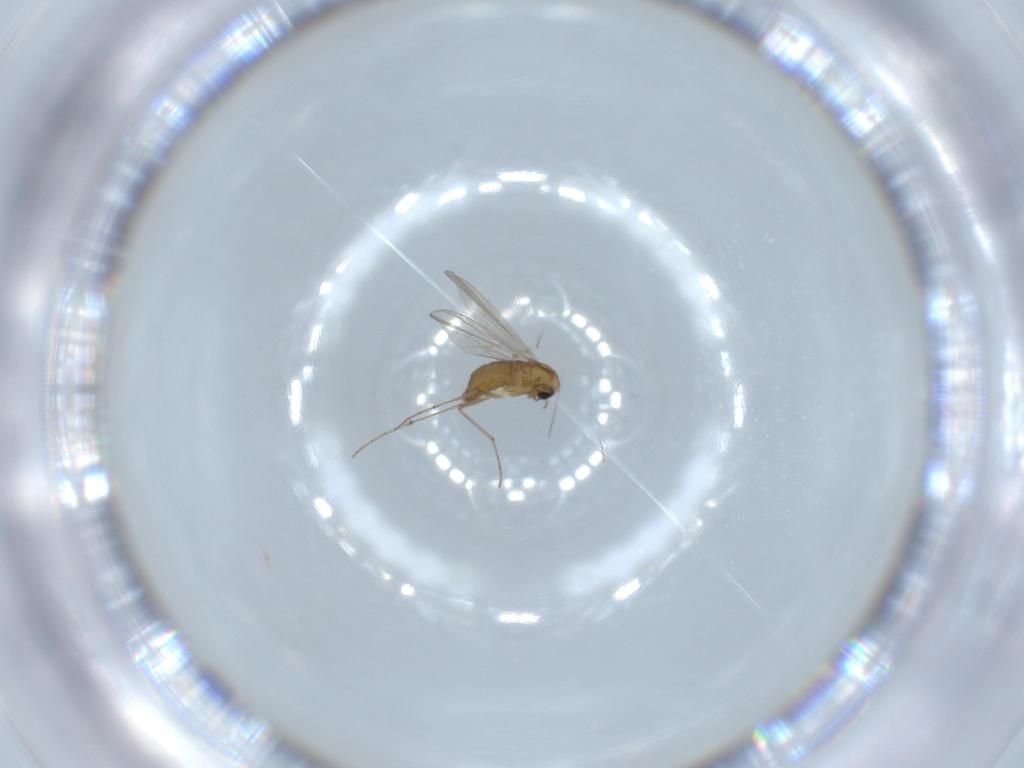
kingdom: Animalia
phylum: Arthropoda
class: Insecta
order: Diptera
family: Chironomidae
